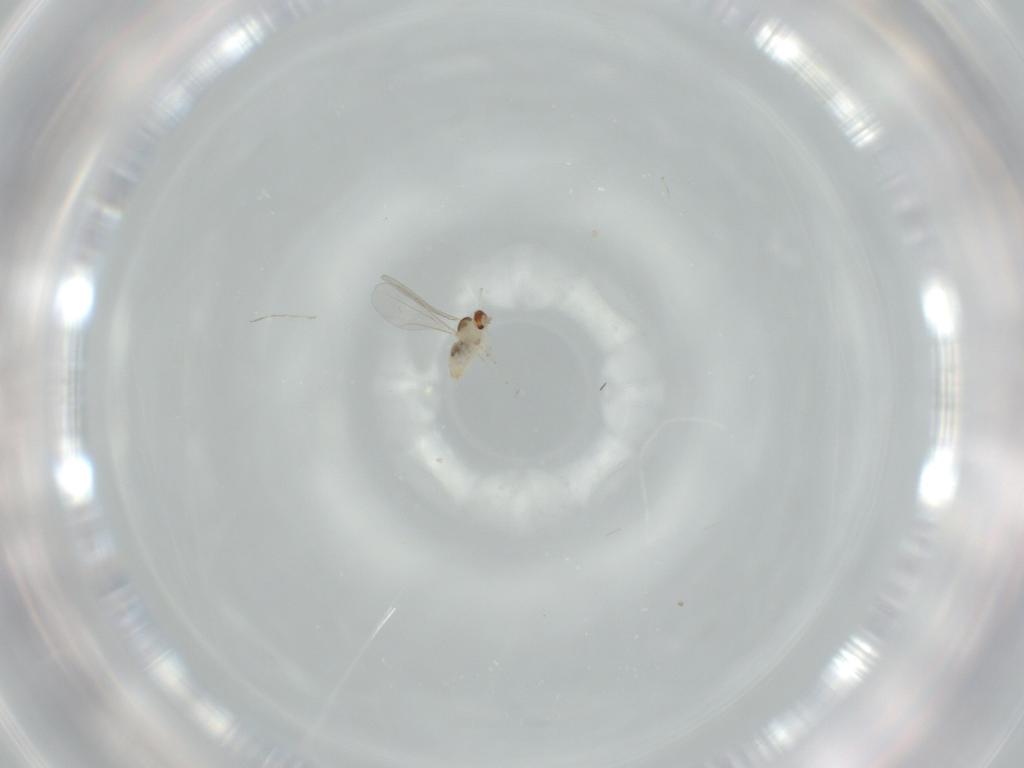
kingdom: Animalia
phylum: Arthropoda
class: Insecta
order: Diptera
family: Cecidomyiidae
